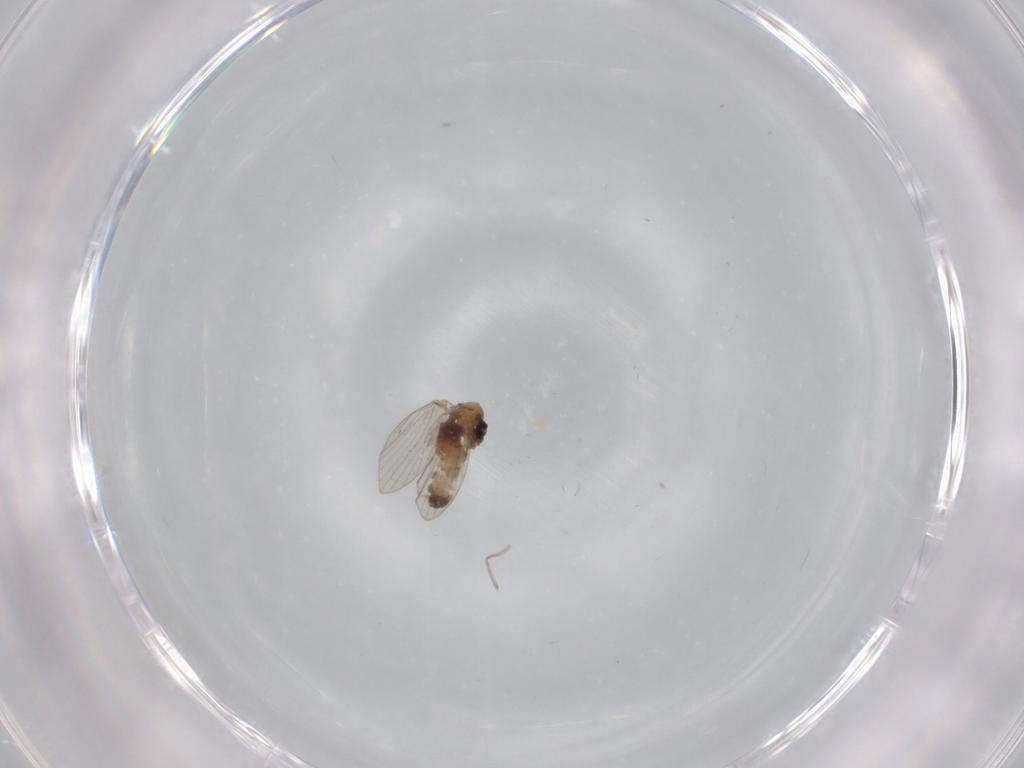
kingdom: Animalia
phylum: Arthropoda
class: Insecta
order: Diptera
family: Psychodidae
